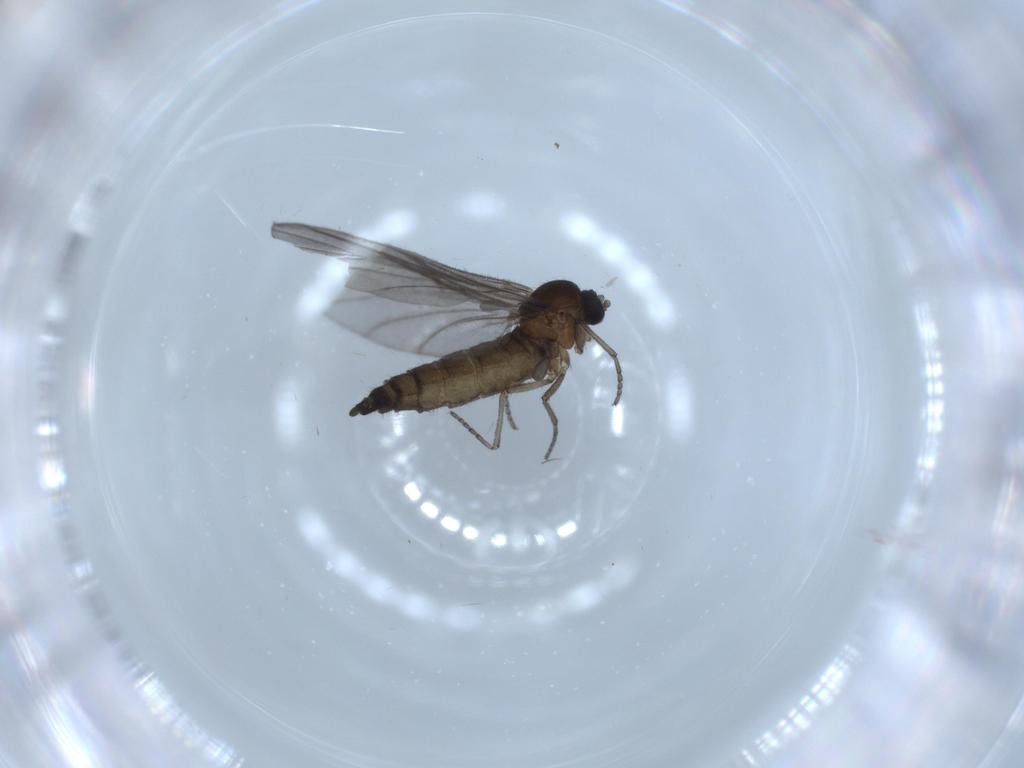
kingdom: Animalia
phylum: Arthropoda
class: Insecta
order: Diptera
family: Sciaridae
